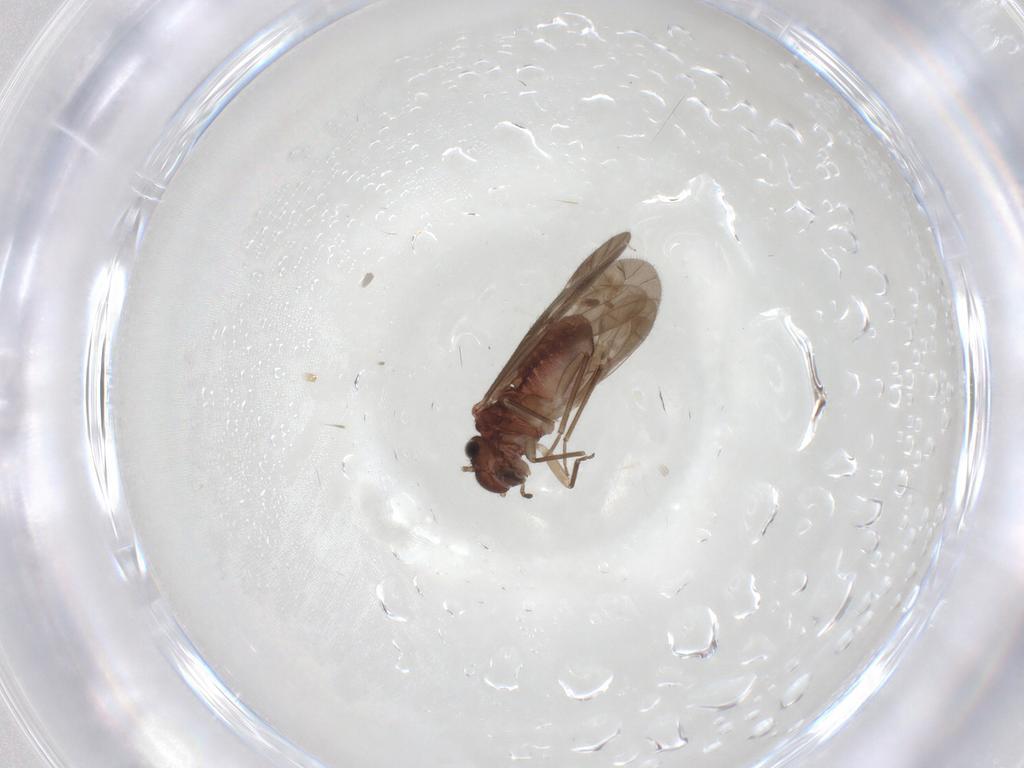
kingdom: Animalia
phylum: Arthropoda
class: Insecta
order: Psocodea
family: Caeciliusidae
